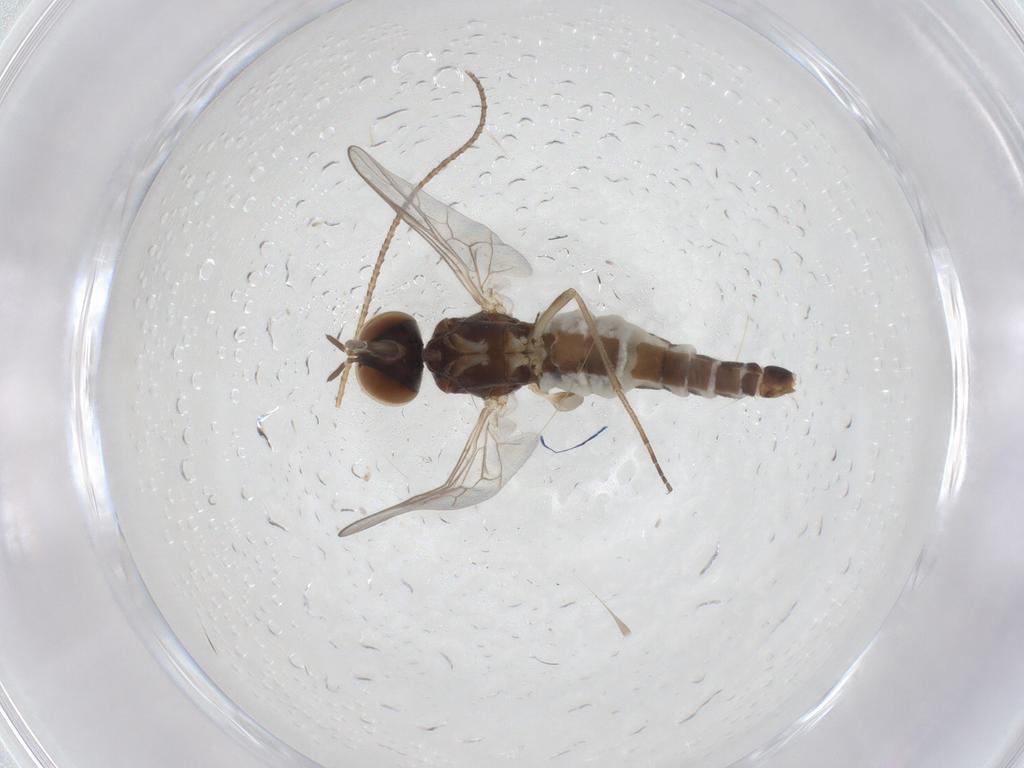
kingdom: Animalia
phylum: Arthropoda
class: Insecta
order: Diptera
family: Scenopinidae
